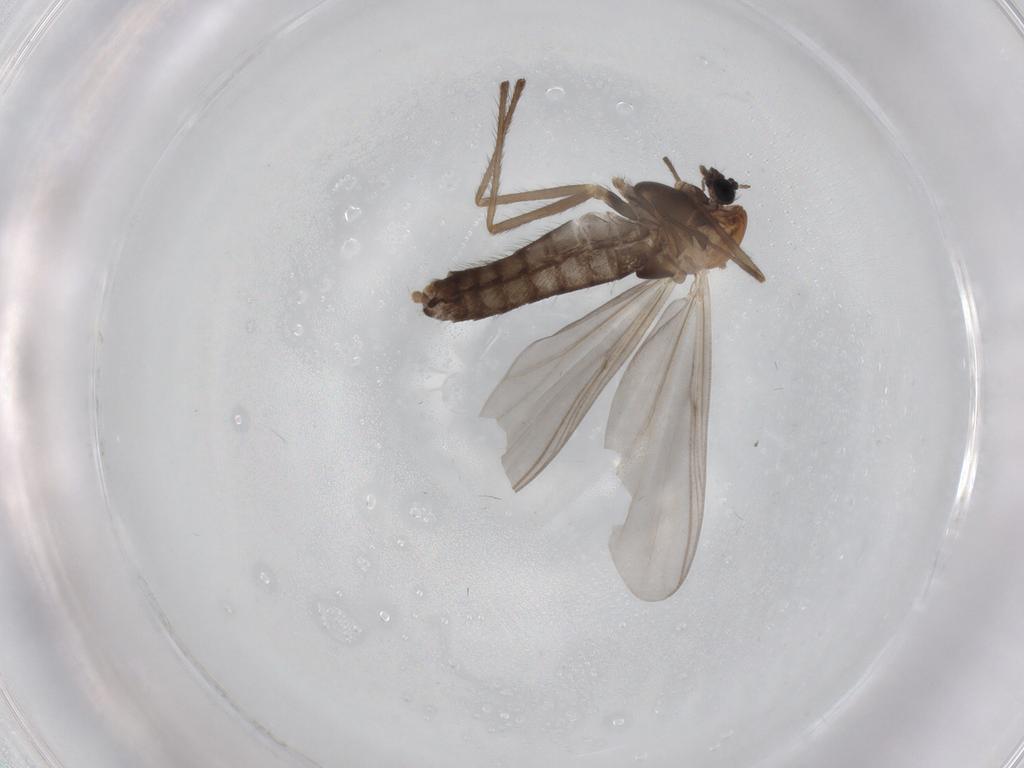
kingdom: Animalia
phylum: Arthropoda
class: Insecta
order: Diptera
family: Chironomidae
